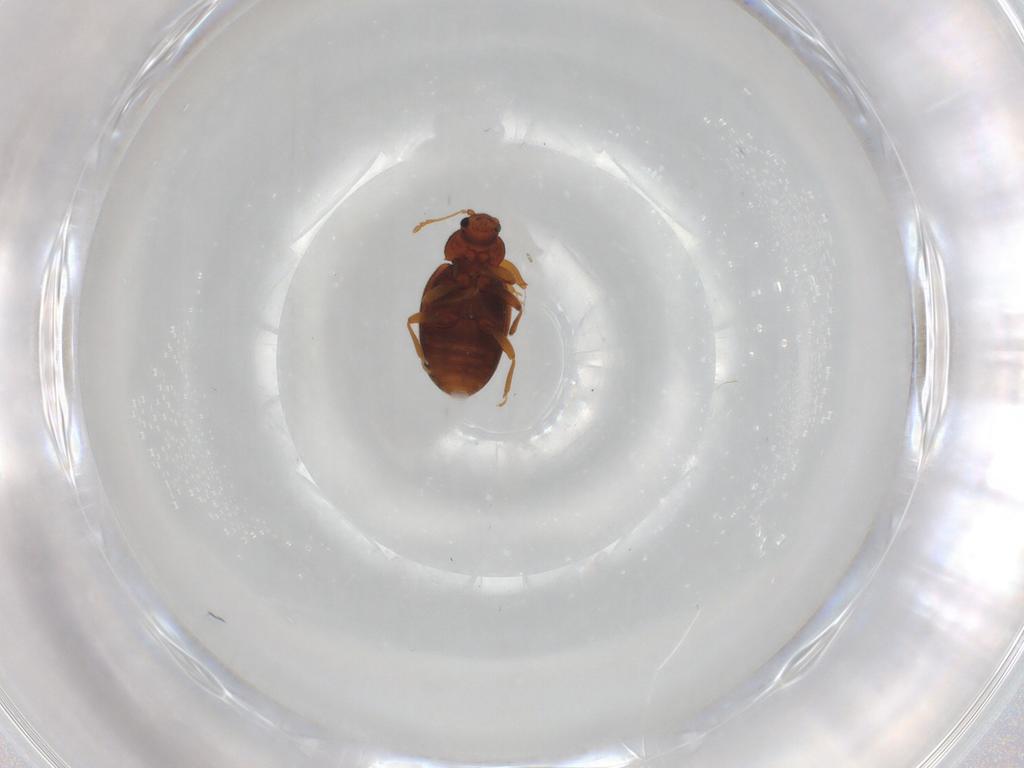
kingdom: Animalia
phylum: Arthropoda
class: Insecta
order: Coleoptera
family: Latridiidae
